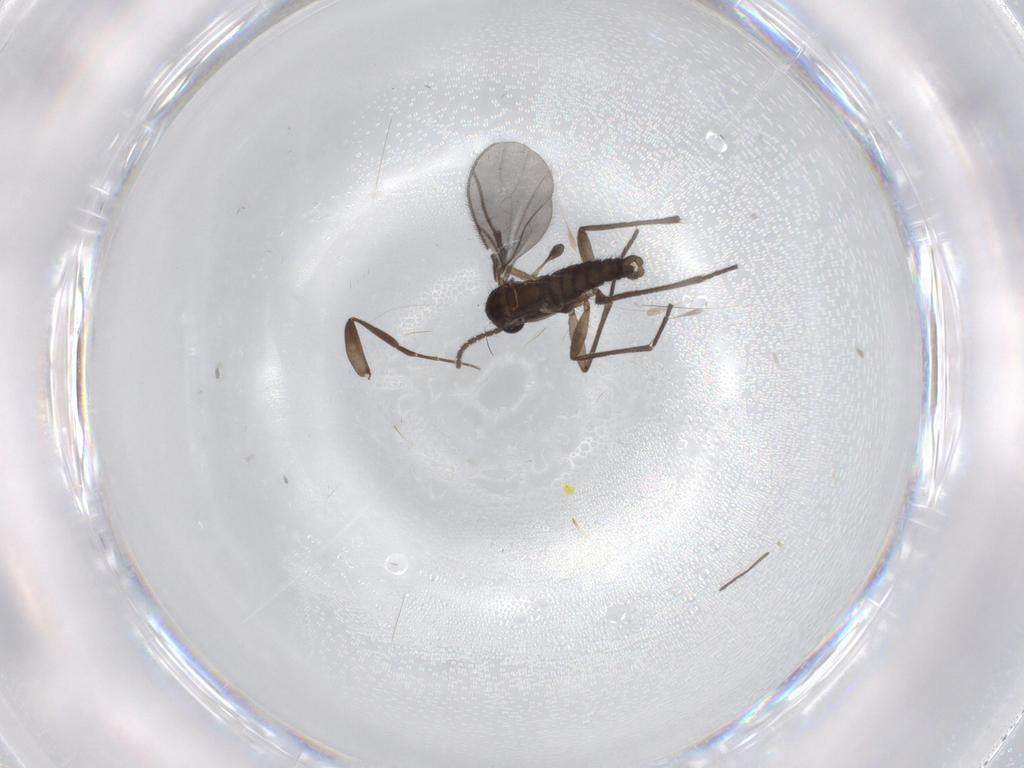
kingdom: Animalia
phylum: Arthropoda
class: Insecta
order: Diptera
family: Sciaridae
